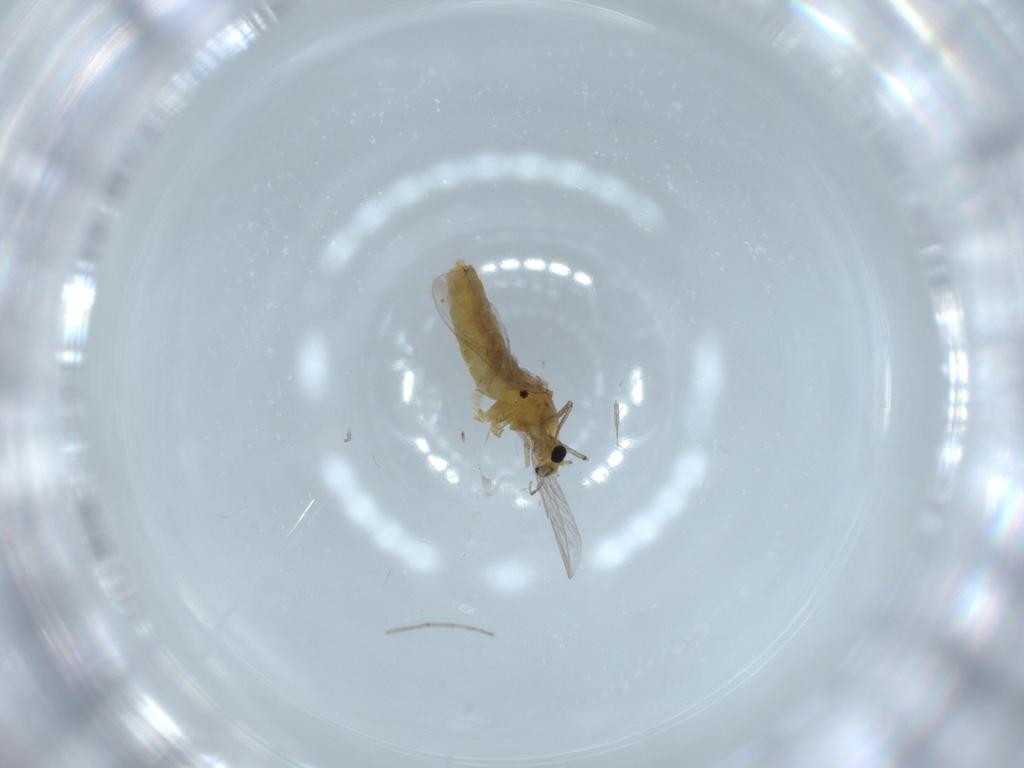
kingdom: Animalia
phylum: Arthropoda
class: Insecta
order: Diptera
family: Chironomidae
